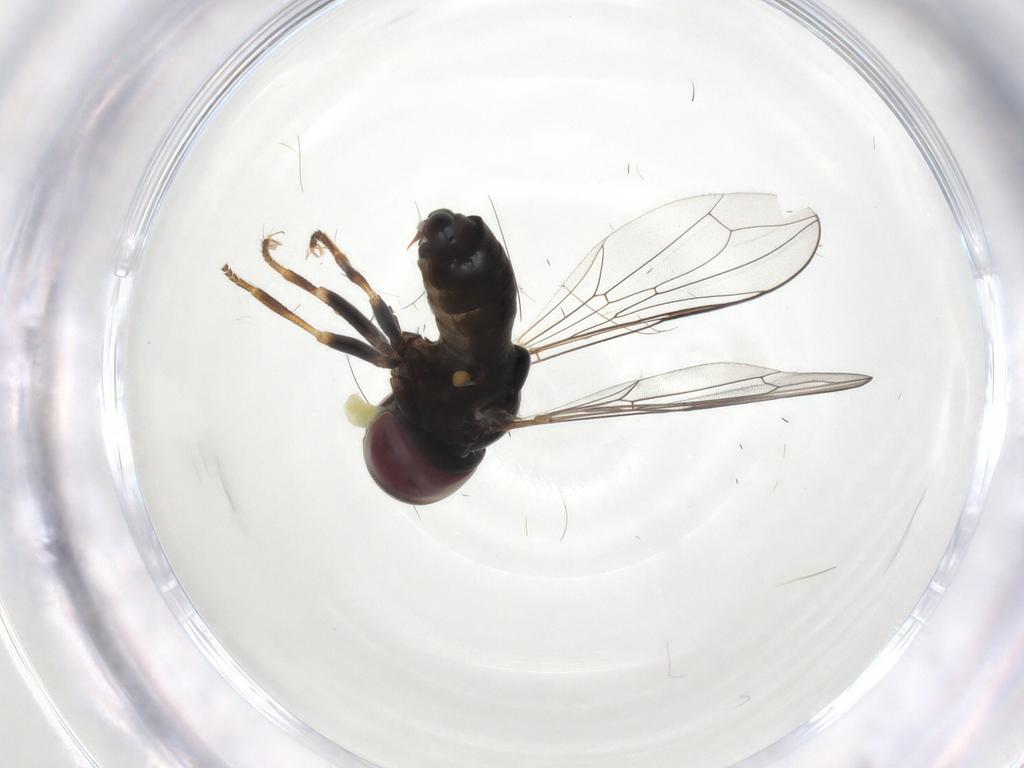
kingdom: Animalia
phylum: Arthropoda
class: Insecta
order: Diptera
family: Pipunculidae
